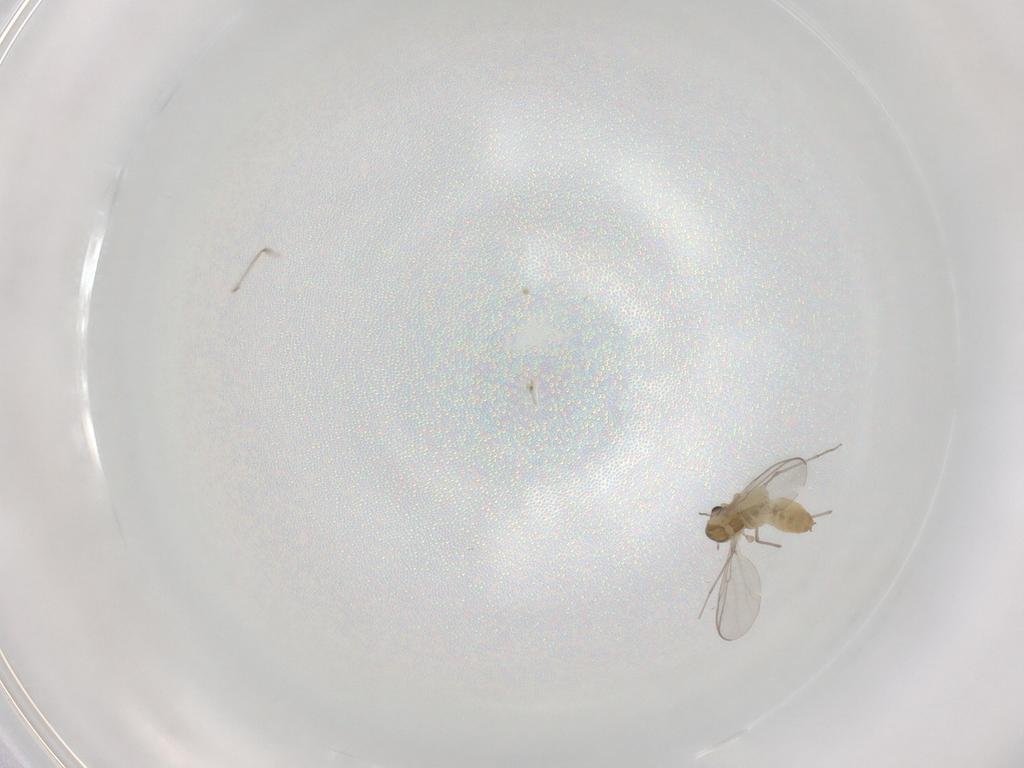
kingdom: Animalia
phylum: Arthropoda
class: Insecta
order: Diptera
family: Chironomidae
